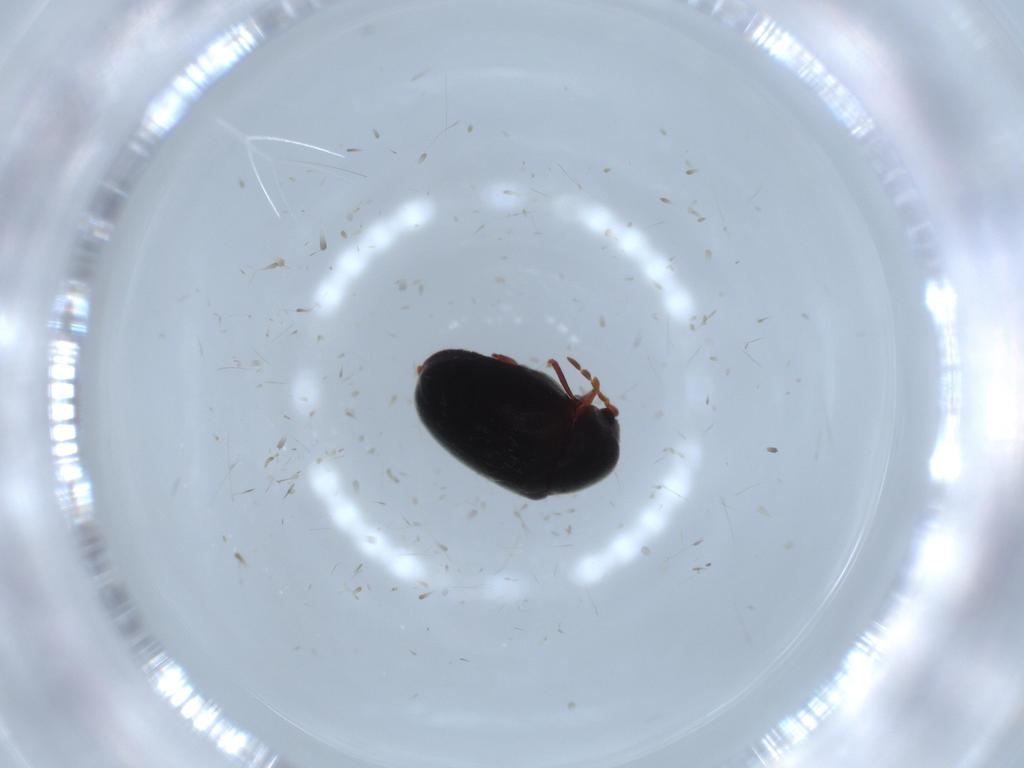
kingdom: Animalia
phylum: Arthropoda
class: Insecta
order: Coleoptera
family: Ptinidae
